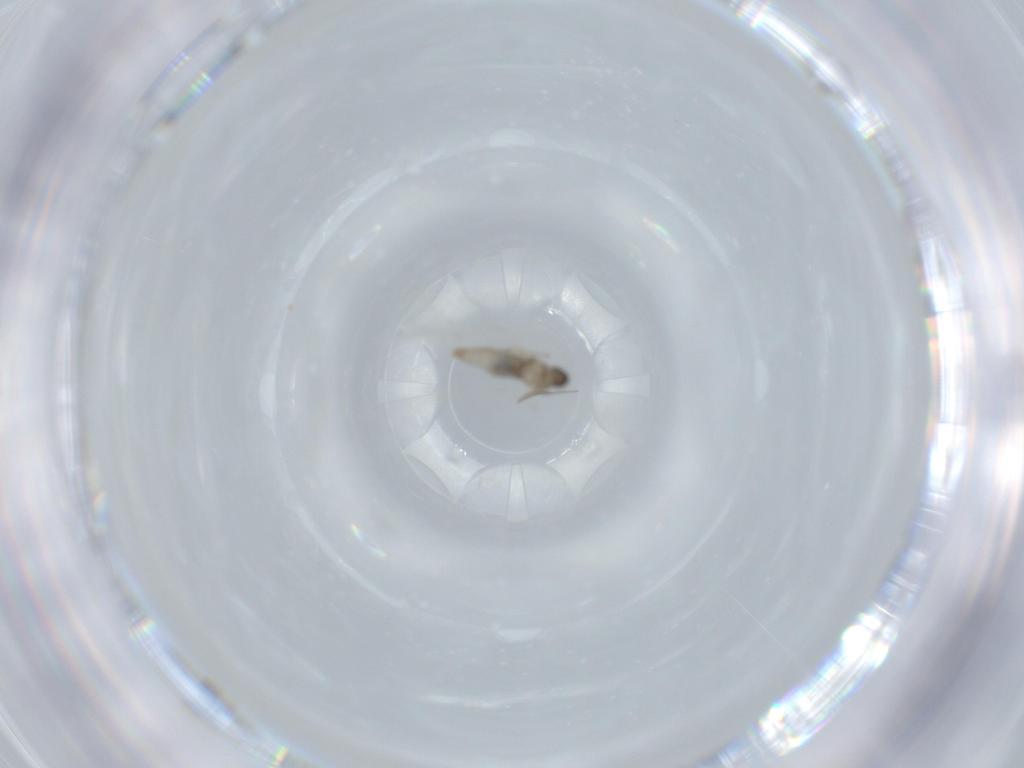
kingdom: Animalia
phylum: Arthropoda
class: Insecta
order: Diptera
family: Cecidomyiidae
